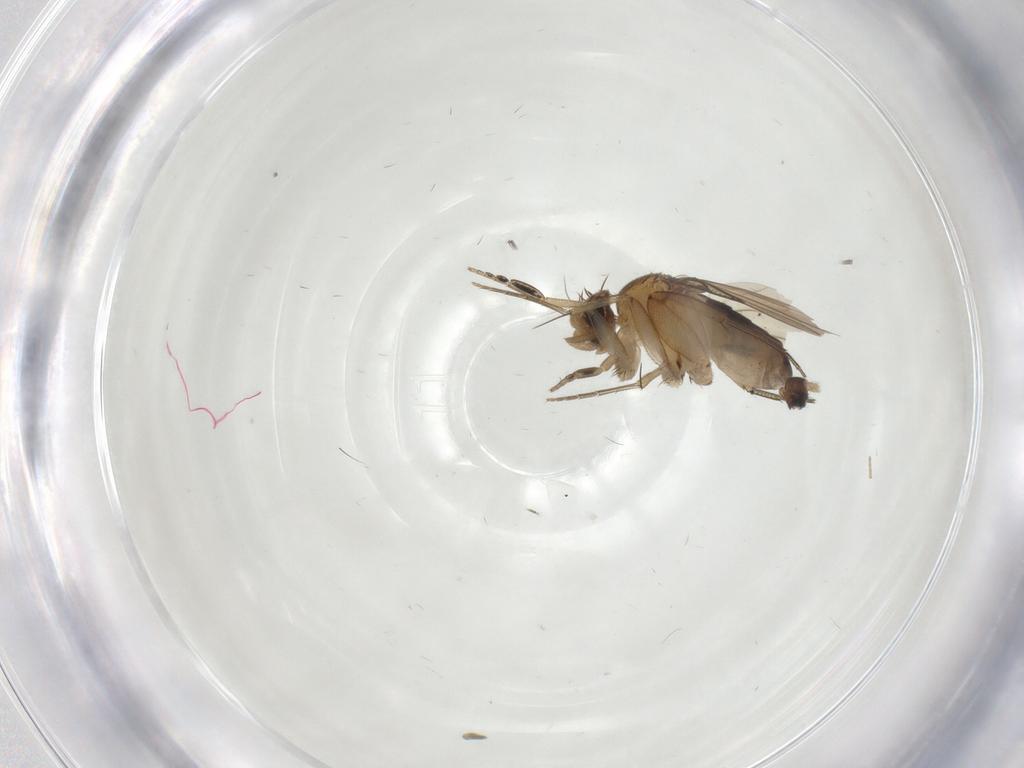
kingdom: Animalia
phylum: Arthropoda
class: Insecta
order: Diptera
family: Phoridae
